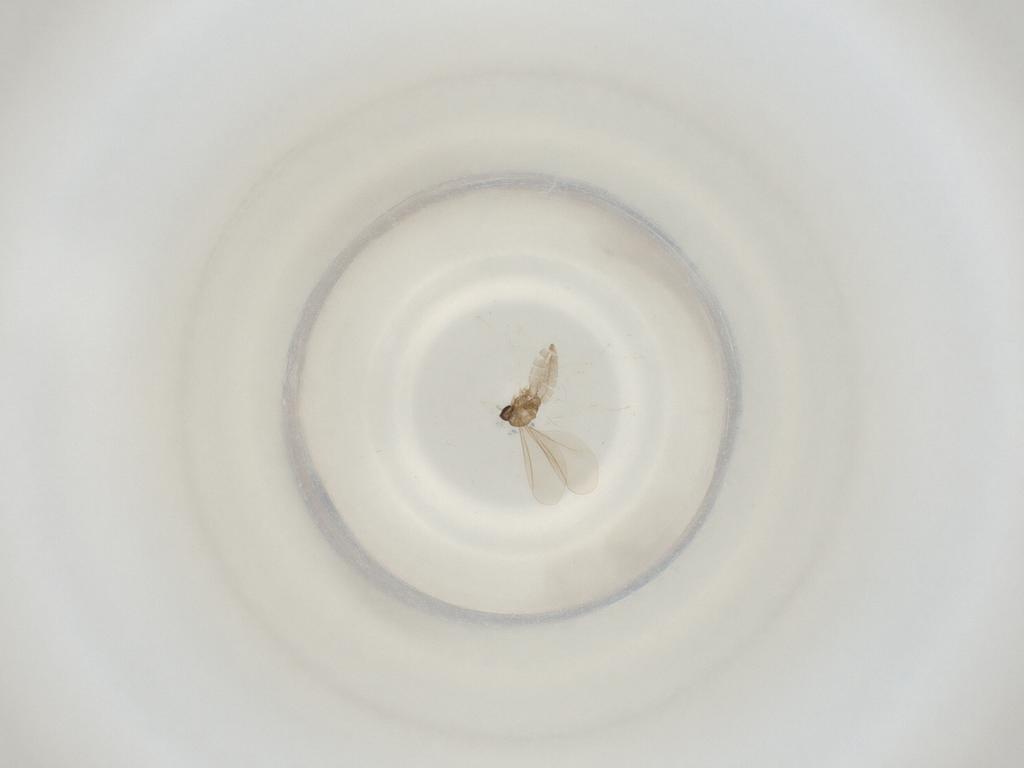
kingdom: Animalia
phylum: Arthropoda
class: Insecta
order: Diptera
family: Cecidomyiidae
